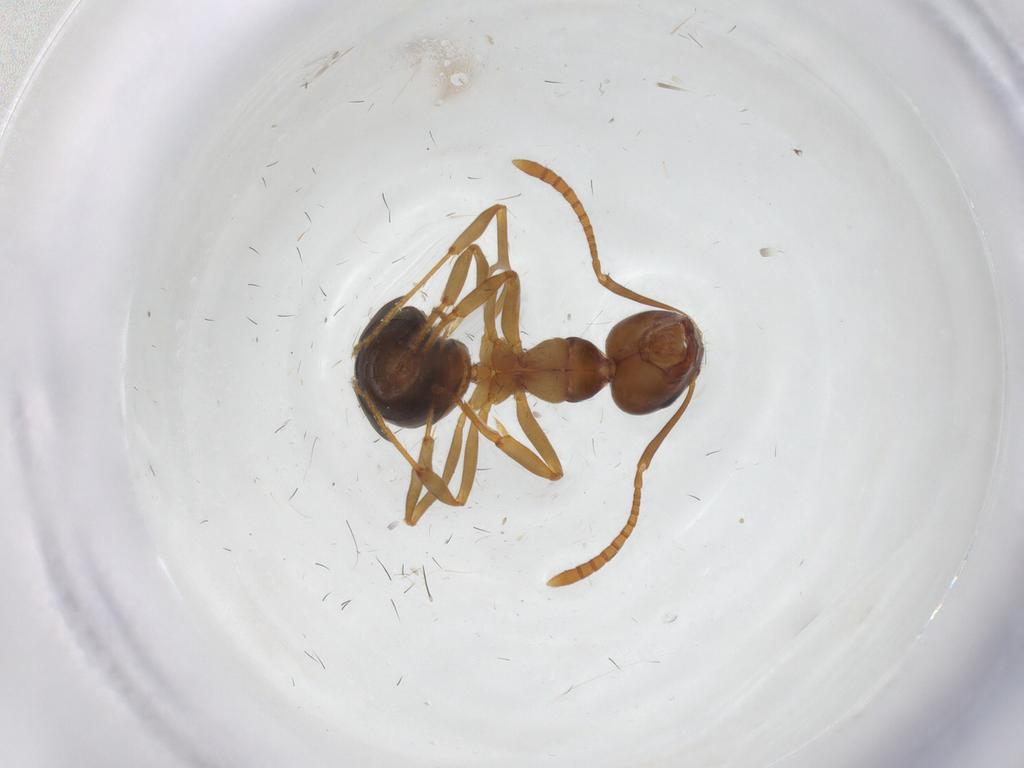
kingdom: Animalia
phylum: Arthropoda
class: Insecta
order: Hymenoptera
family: Formicidae
